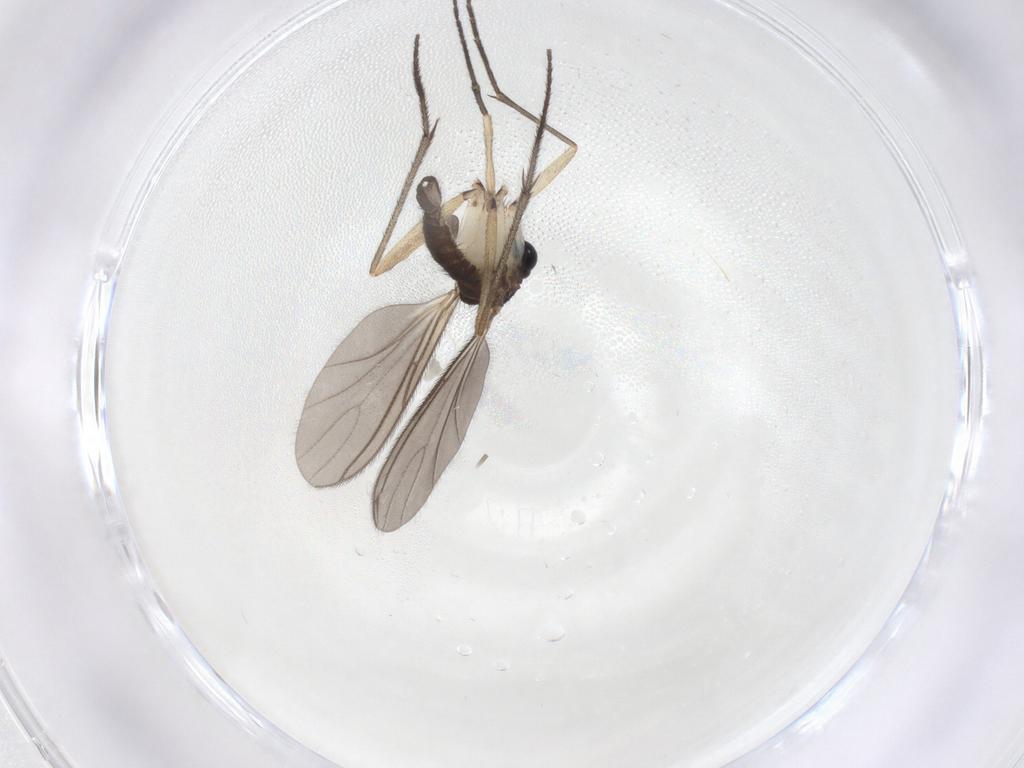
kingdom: Animalia
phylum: Arthropoda
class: Insecta
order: Diptera
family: Sciaridae
